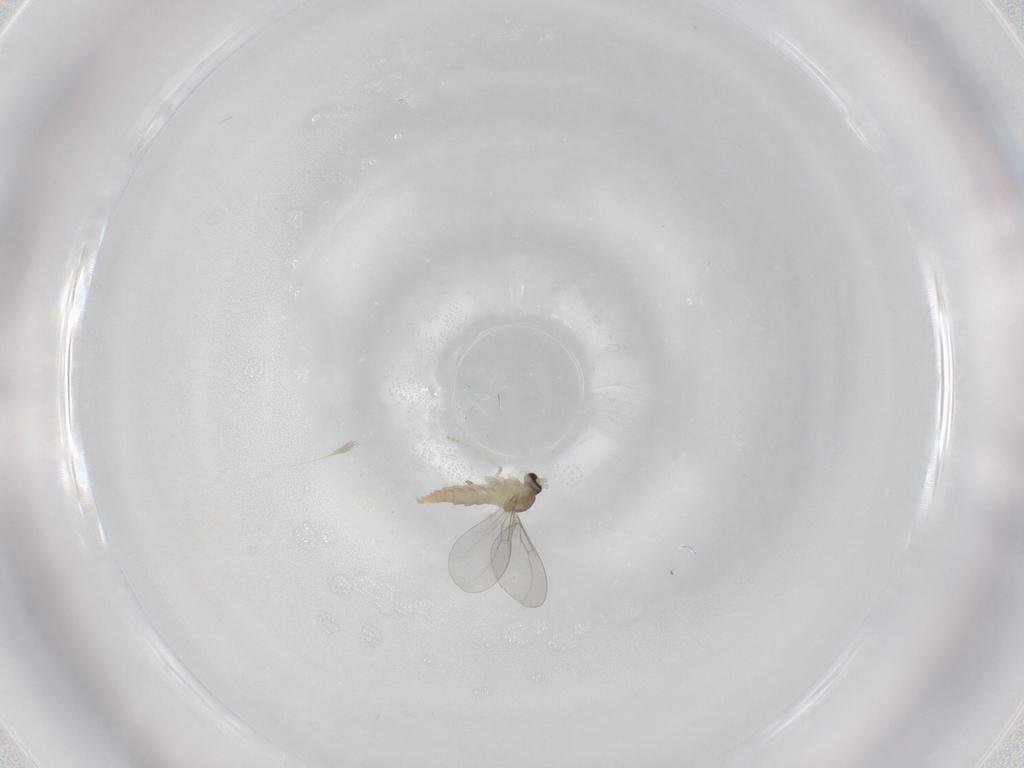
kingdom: Animalia
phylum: Arthropoda
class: Insecta
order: Diptera
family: Cecidomyiidae
